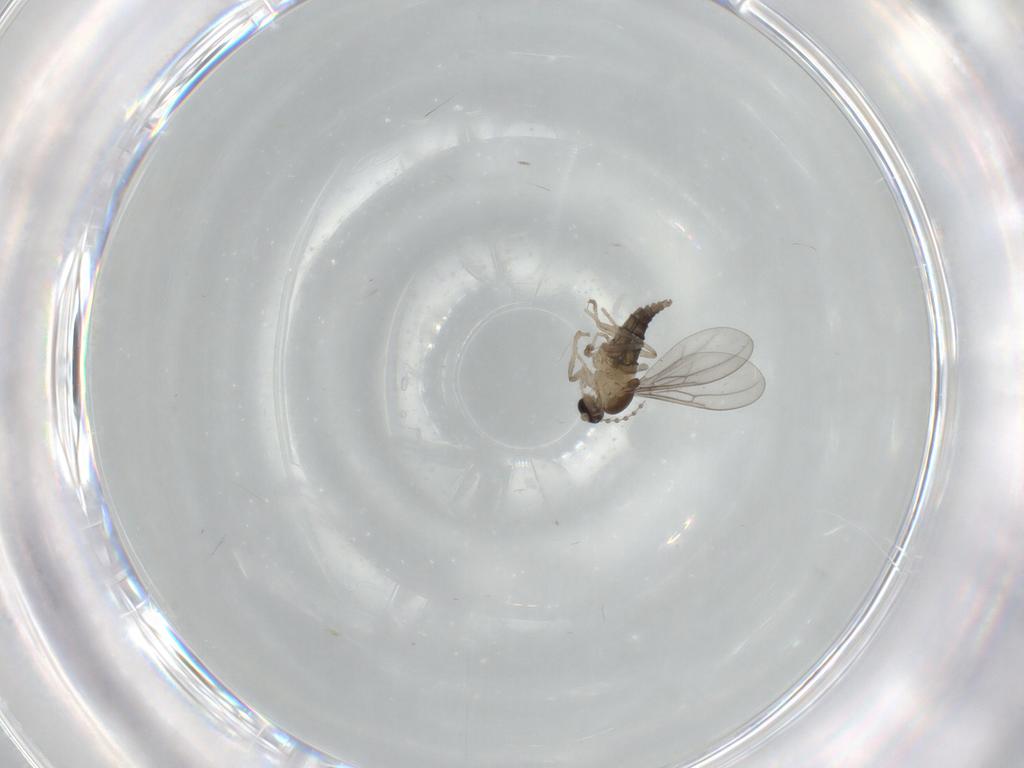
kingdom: Animalia
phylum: Arthropoda
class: Insecta
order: Diptera
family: Cecidomyiidae
